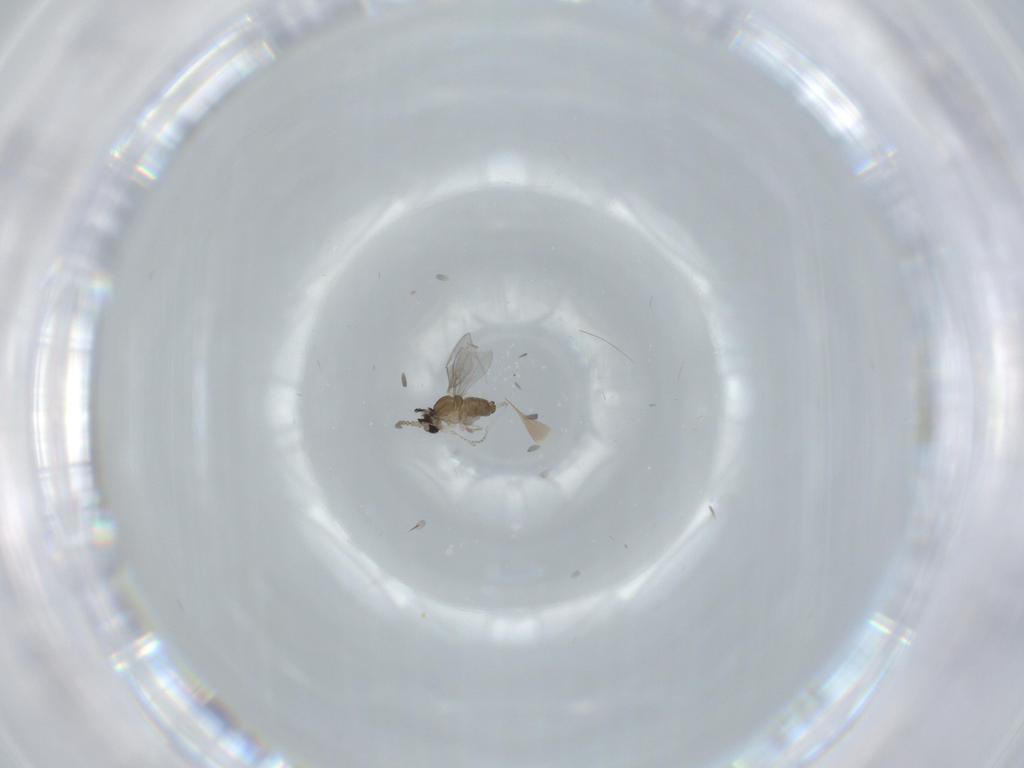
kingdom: Animalia
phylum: Arthropoda
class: Insecta
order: Diptera
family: Cecidomyiidae
